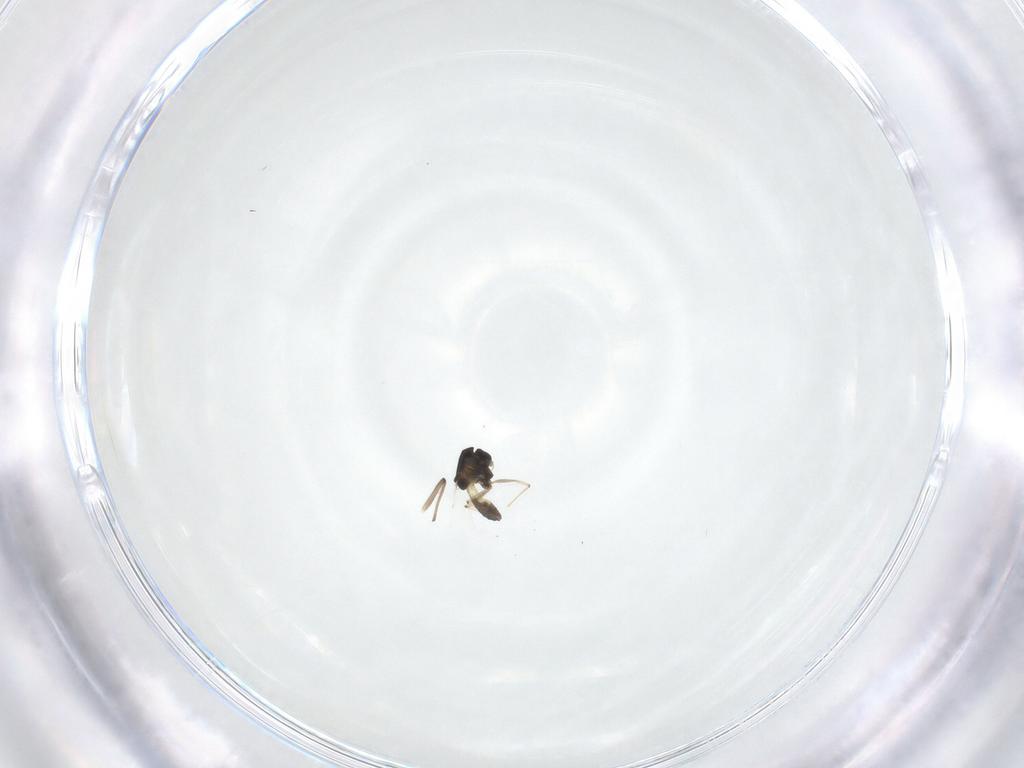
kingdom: Animalia
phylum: Arthropoda
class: Insecta
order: Diptera
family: Chironomidae
